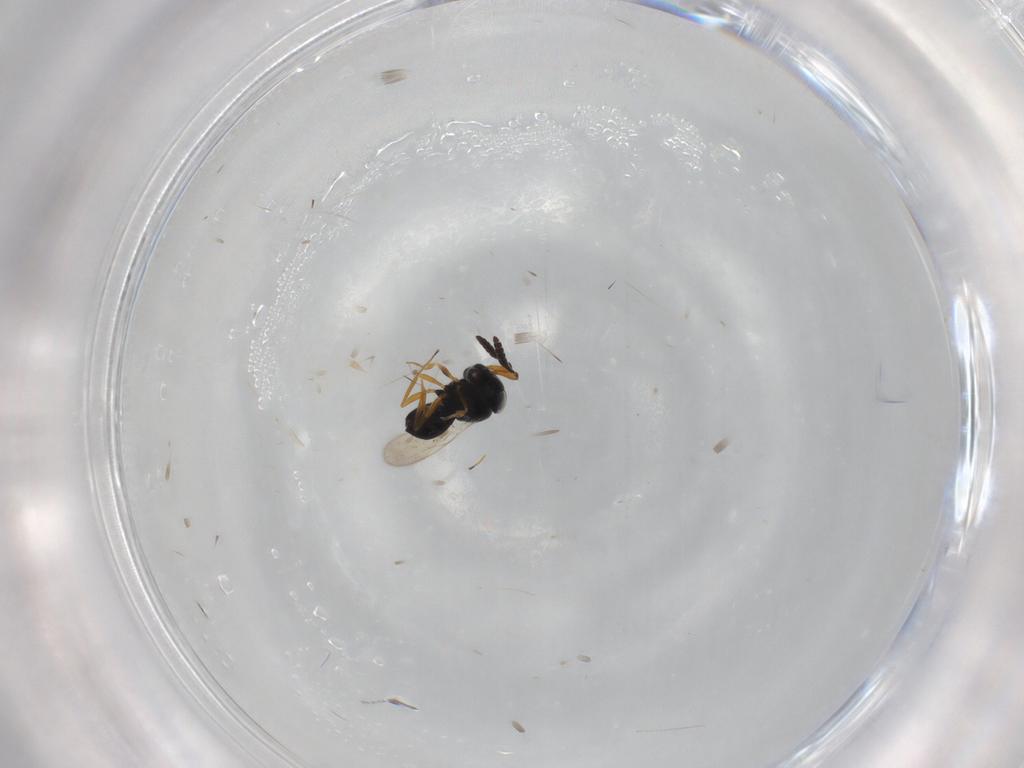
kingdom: Animalia
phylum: Arthropoda
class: Insecta
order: Hymenoptera
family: Scelionidae
